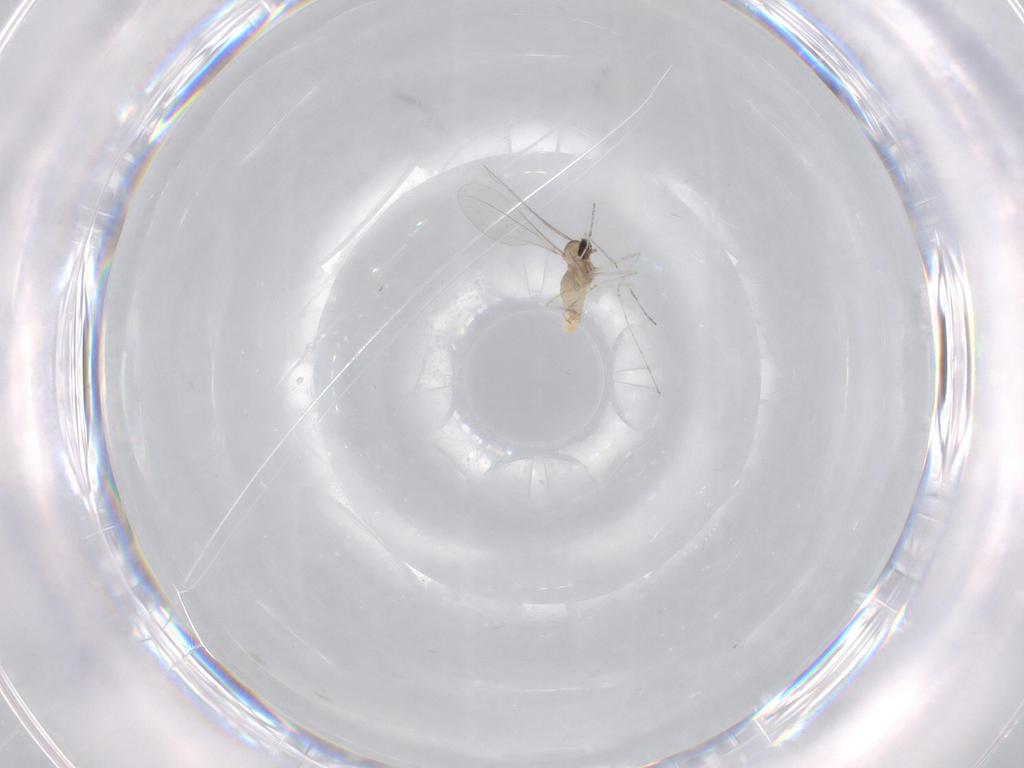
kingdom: Animalia
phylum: Arthropoda
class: Insecta
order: Diptera
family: Corethrellidae
